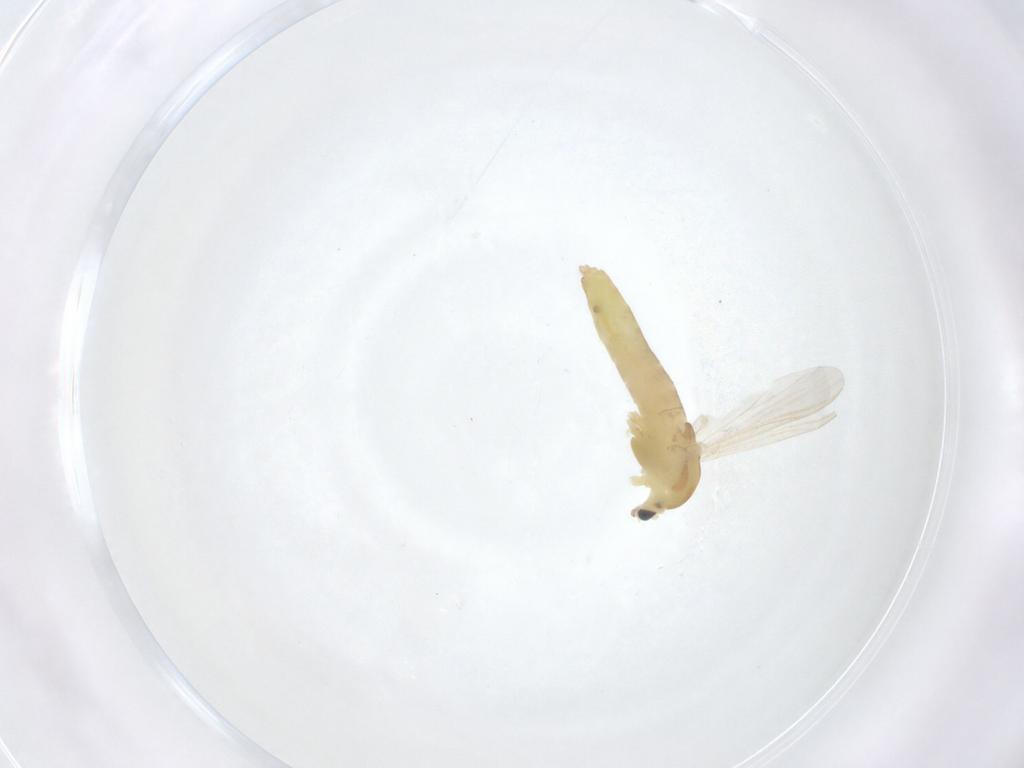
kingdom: Animalia
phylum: Arthropoda
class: Insecta
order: Diptera
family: Chironomidae
